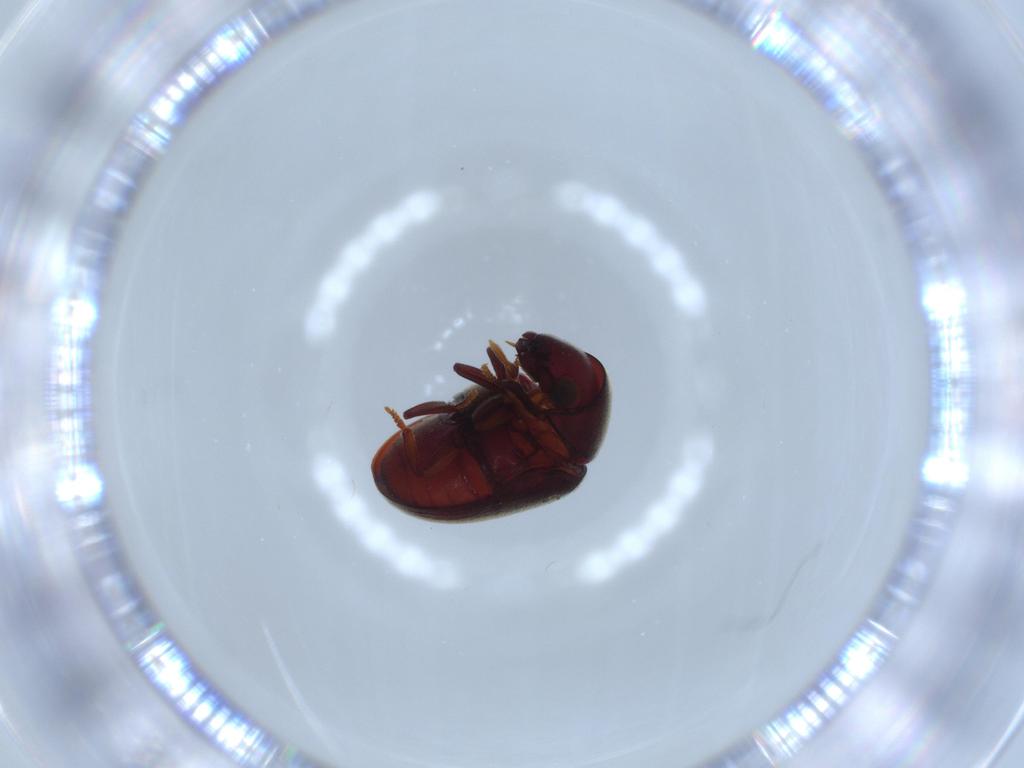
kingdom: Animalia
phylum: Arthropoda
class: Insecta
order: Coleoptera
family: Ptinidae
